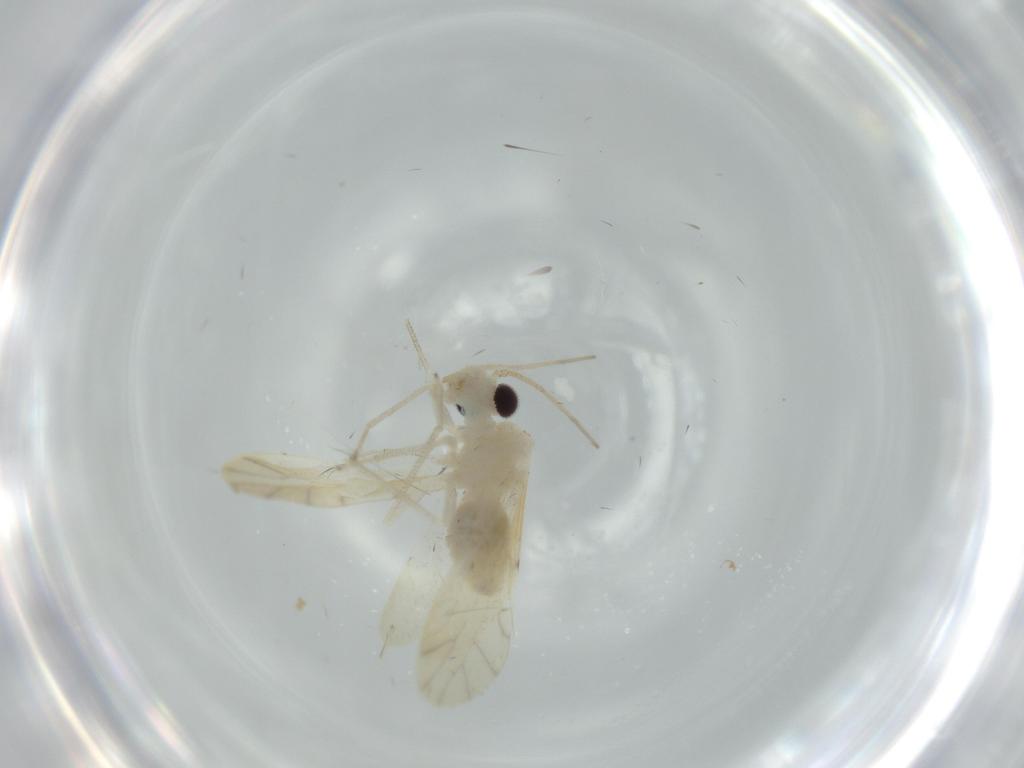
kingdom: Animalia
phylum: Arthropoda
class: Insecta
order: Psocodea
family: Caeciliusidae
